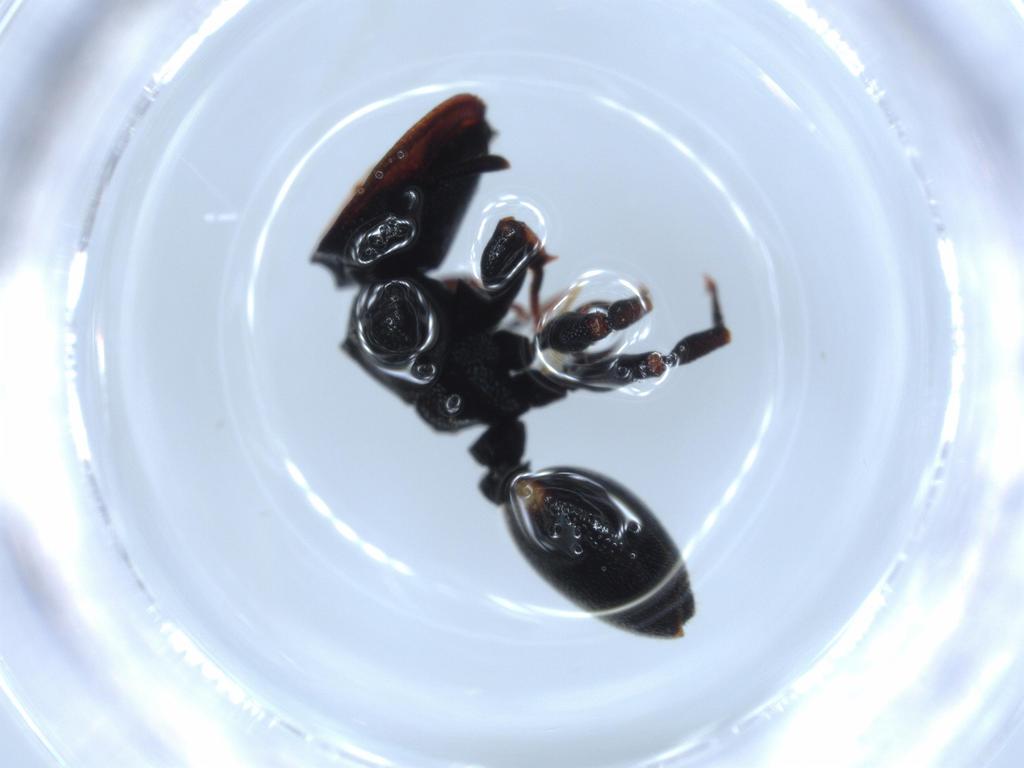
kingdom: Animalia
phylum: Arthropoda
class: Insecta
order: Hymenoptera
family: Formicidae
